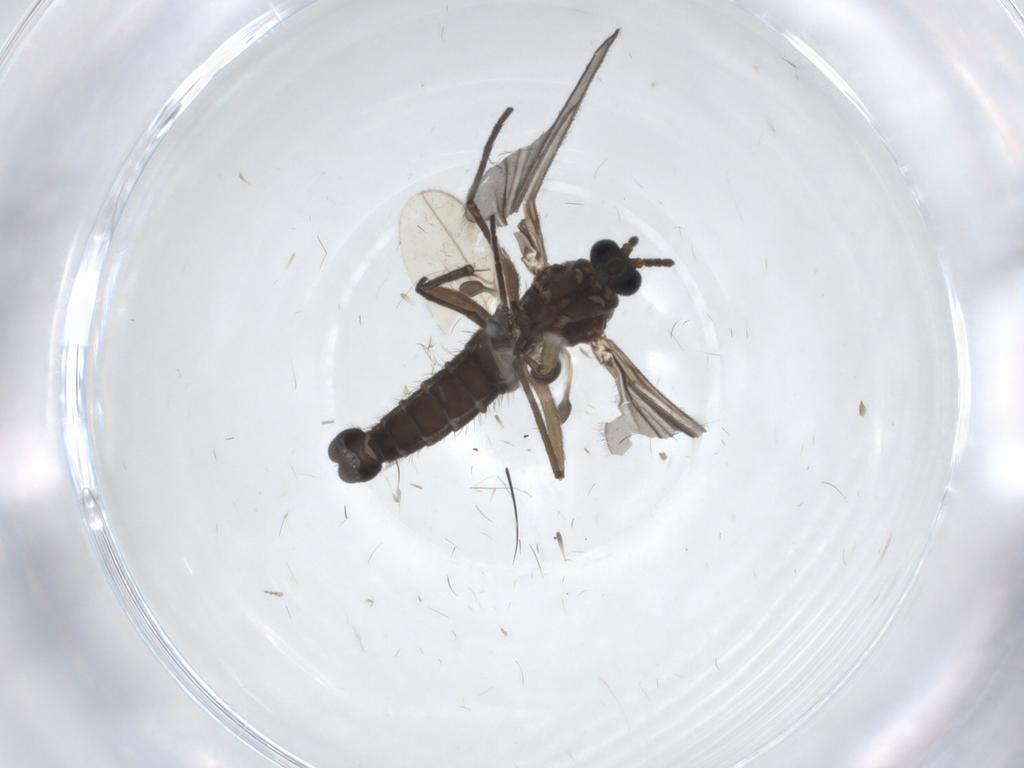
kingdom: Animalia
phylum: Arthropoda
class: Insecta
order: Diptera
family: Sciaridae
